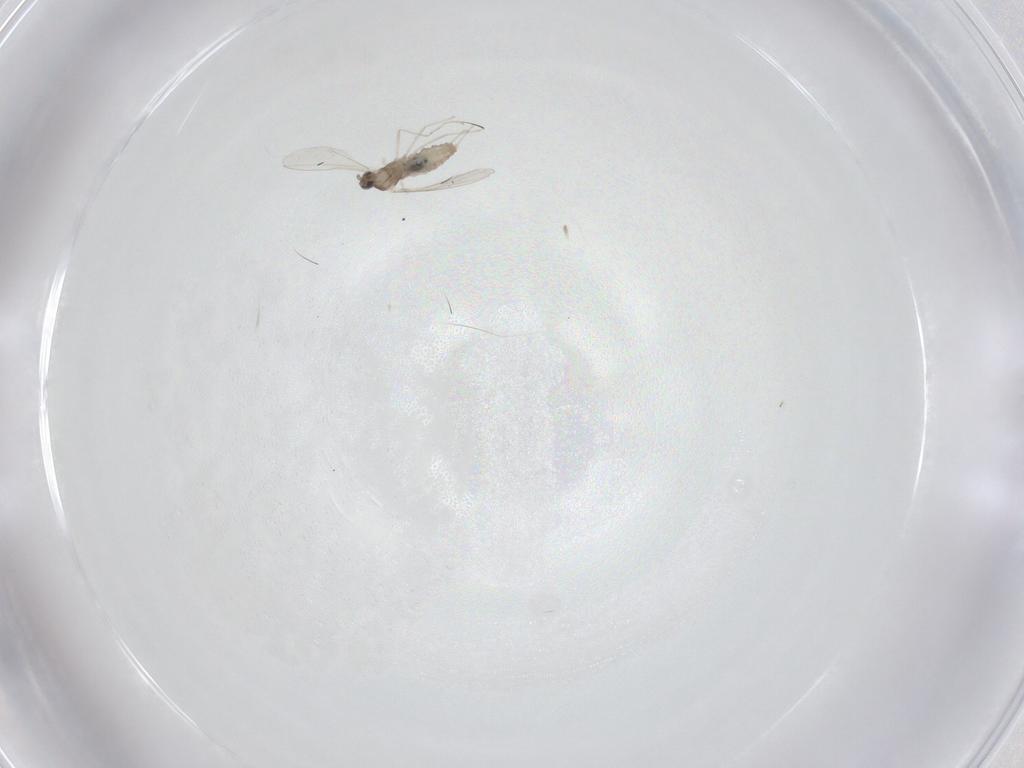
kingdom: Animalia
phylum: Arthropoda
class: Insecta
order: Diptera
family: Cecidomyiidae
